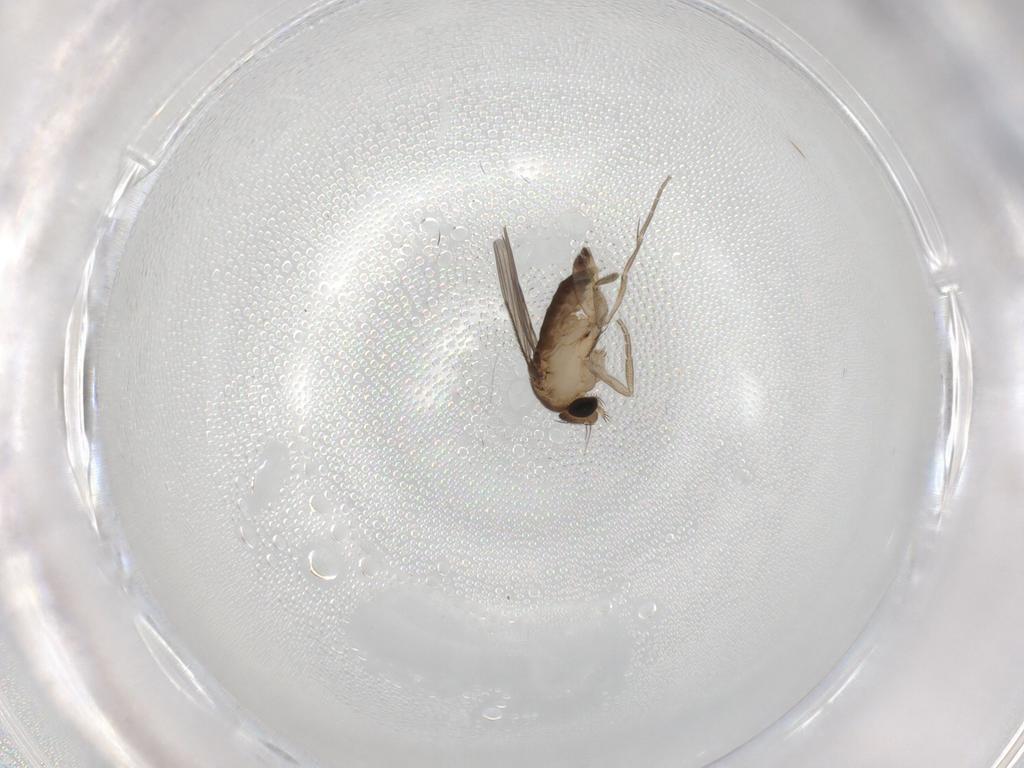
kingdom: Animalia
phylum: Arthropoda
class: Insecta
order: Diptera
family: Phoridae
